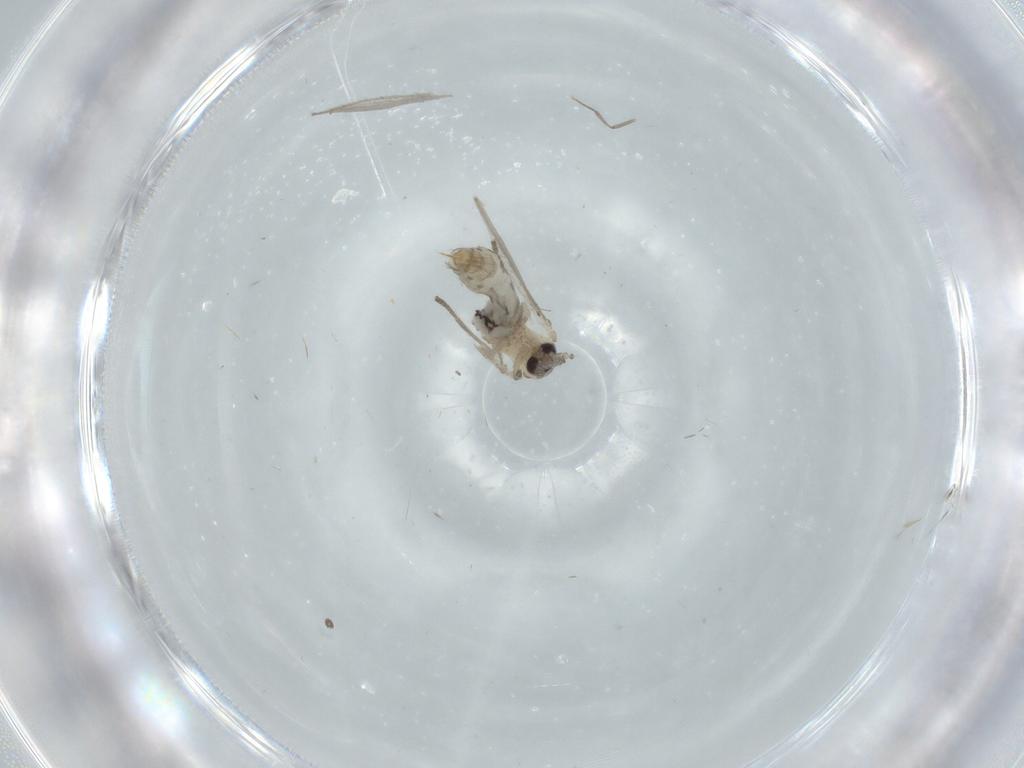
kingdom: Animalia
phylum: Arthropoda
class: Insecta
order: Diptera
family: Psychodidae
